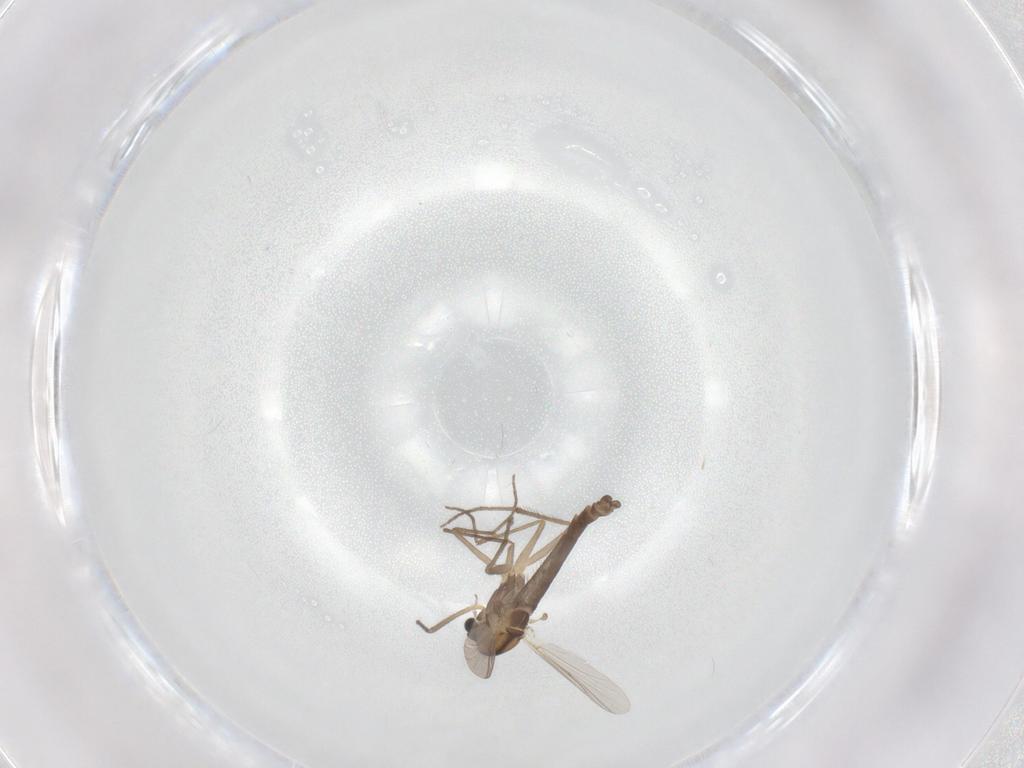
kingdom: Animalia
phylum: Arthropoda
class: Insecta
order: Diptera
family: Chironomidae
